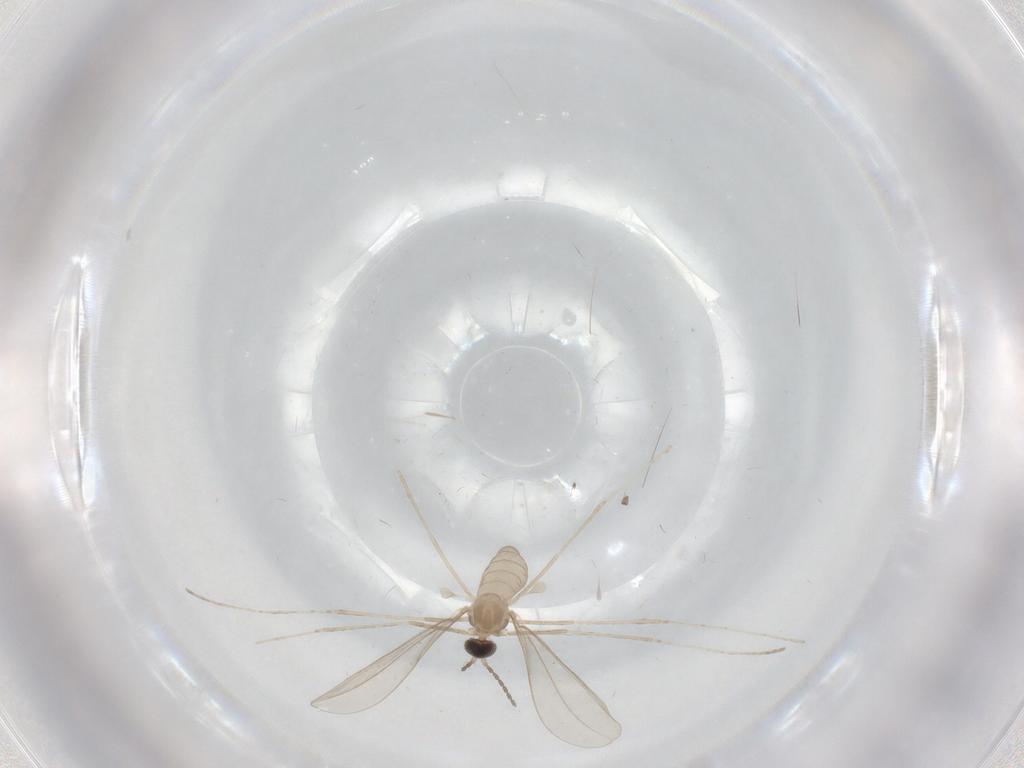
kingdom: Animalia
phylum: Arthropoda
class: Insecta
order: Diptera
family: Cecidomyiidae
